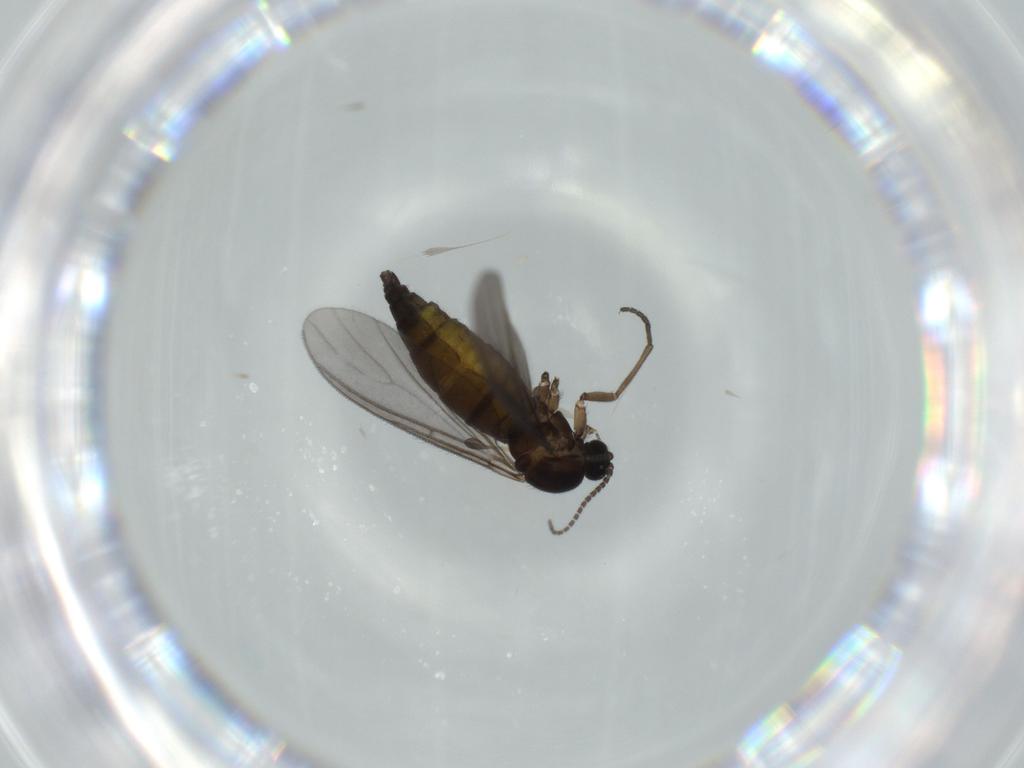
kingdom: Animalia
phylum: Arthropoda
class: Insecta
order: Diptera
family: Sciaridae
